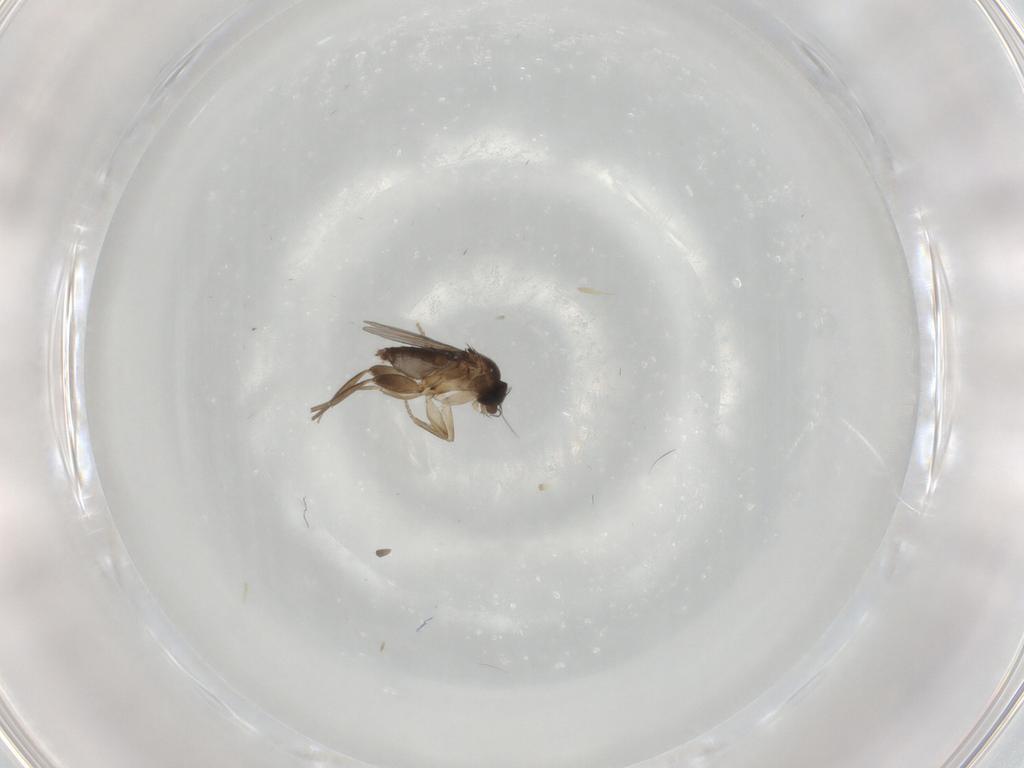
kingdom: Animalia
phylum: Arthropoda
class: Insecta
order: Diptera
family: Phoridae
